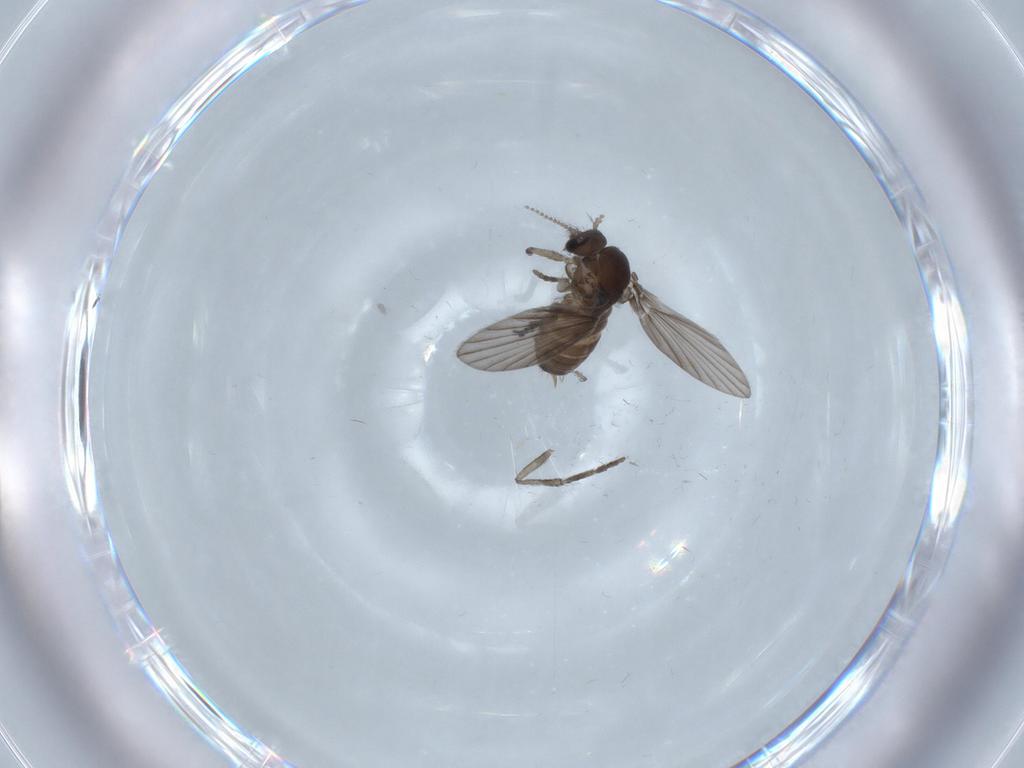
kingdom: Animalia
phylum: Arthropoda
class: Insecta
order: Diptera
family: Psychodidae
